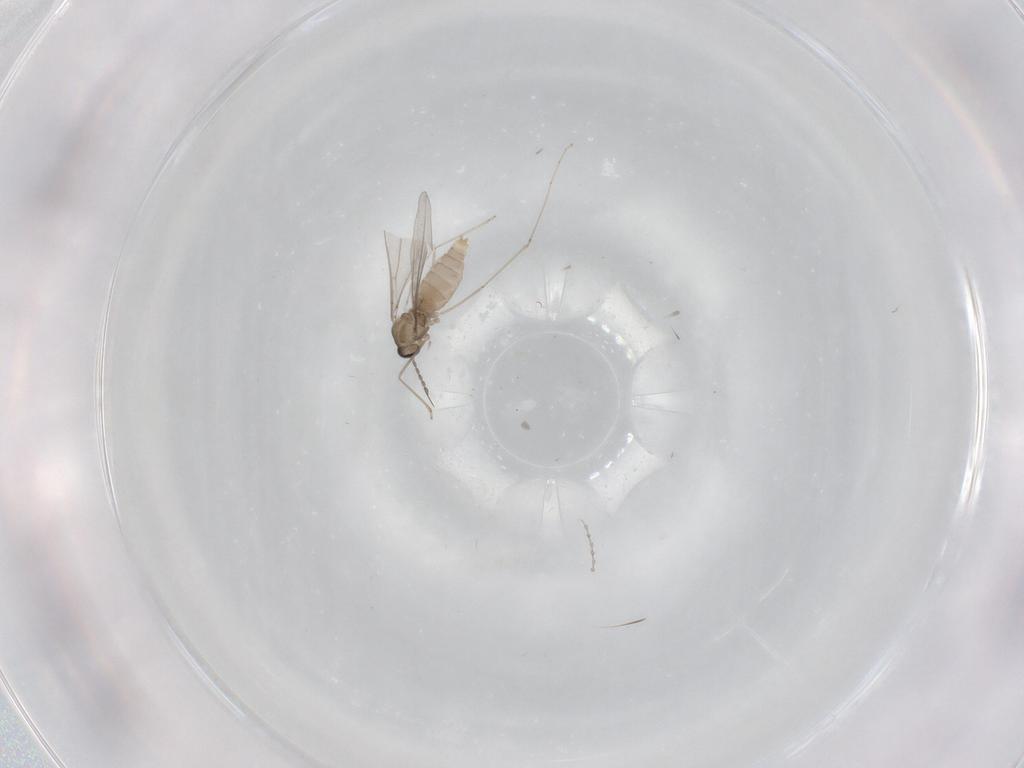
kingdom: Animalia
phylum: Arthropoda
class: Insecta
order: Diptera
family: Cecidomyiidae
